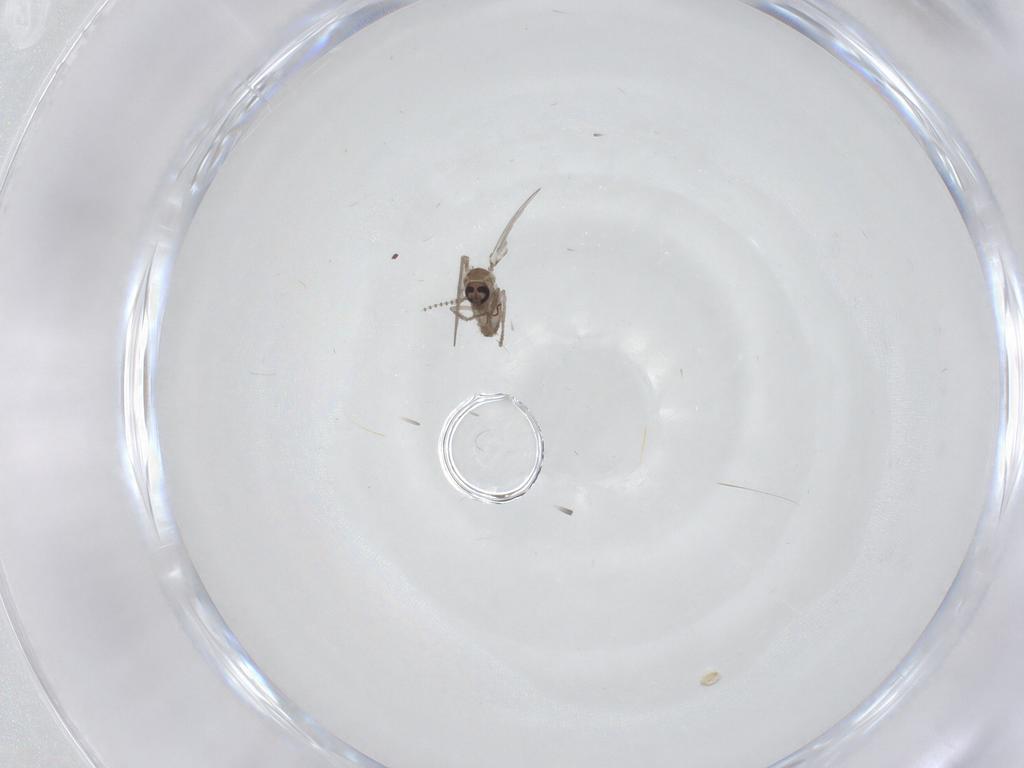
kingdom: Animalia
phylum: Arthropoda
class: Insecta
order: Diptera
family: Psychodidae
